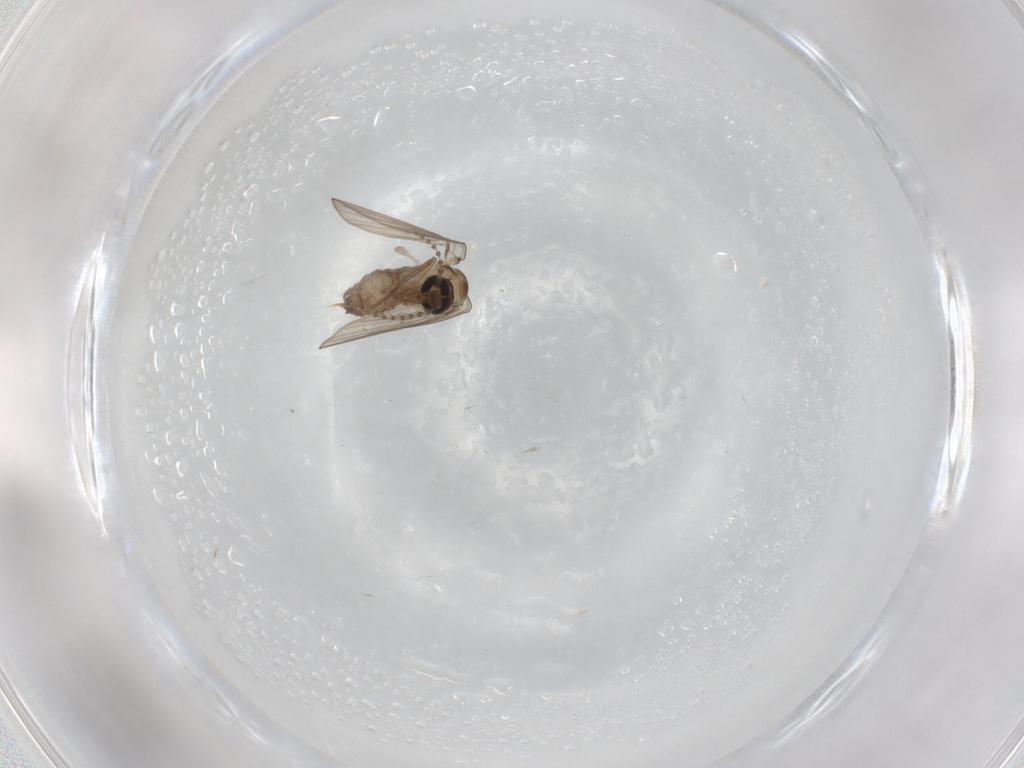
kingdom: Animalia
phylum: Arthropoda
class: Insecta
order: Diptera
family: Psychodidae
